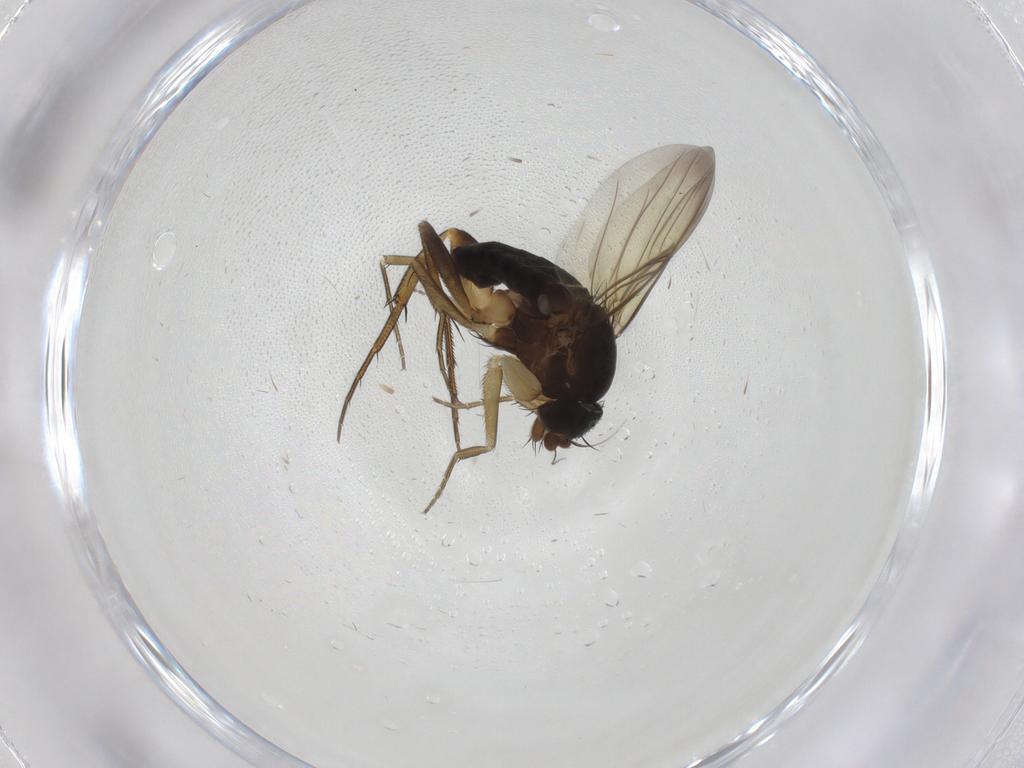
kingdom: Animalia
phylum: Arthropoda
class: Insecta
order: Diptera
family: Phoridae
